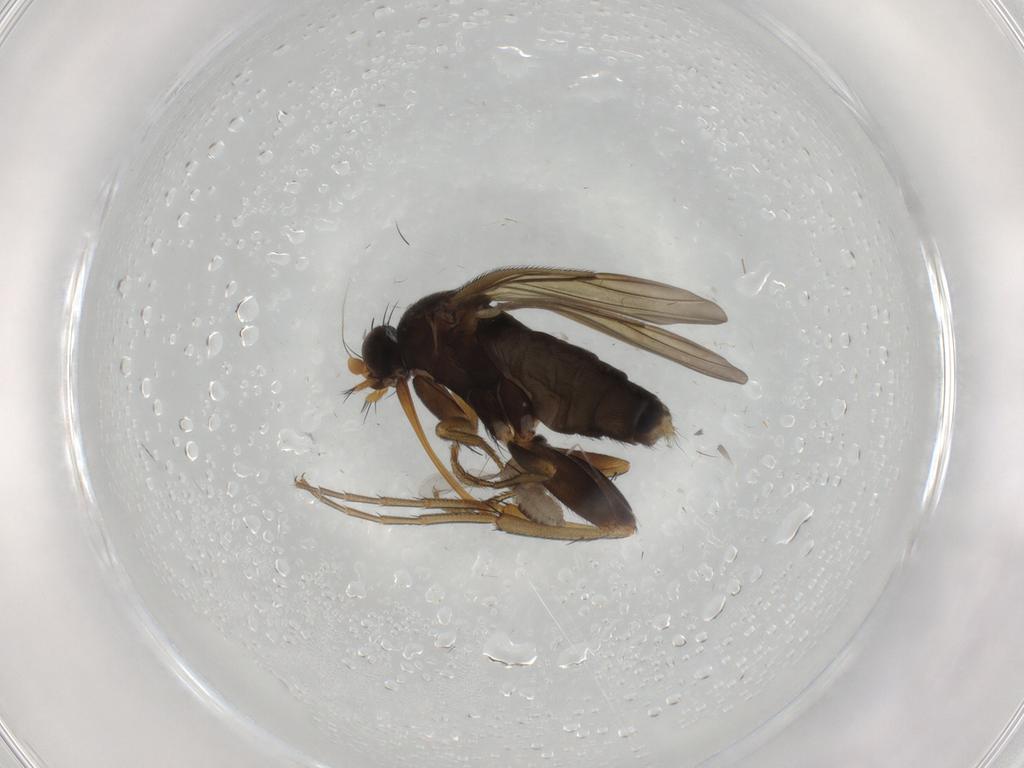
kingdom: Animalia
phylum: Arthropoda
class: Insecta
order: Diptera
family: Phoridae
